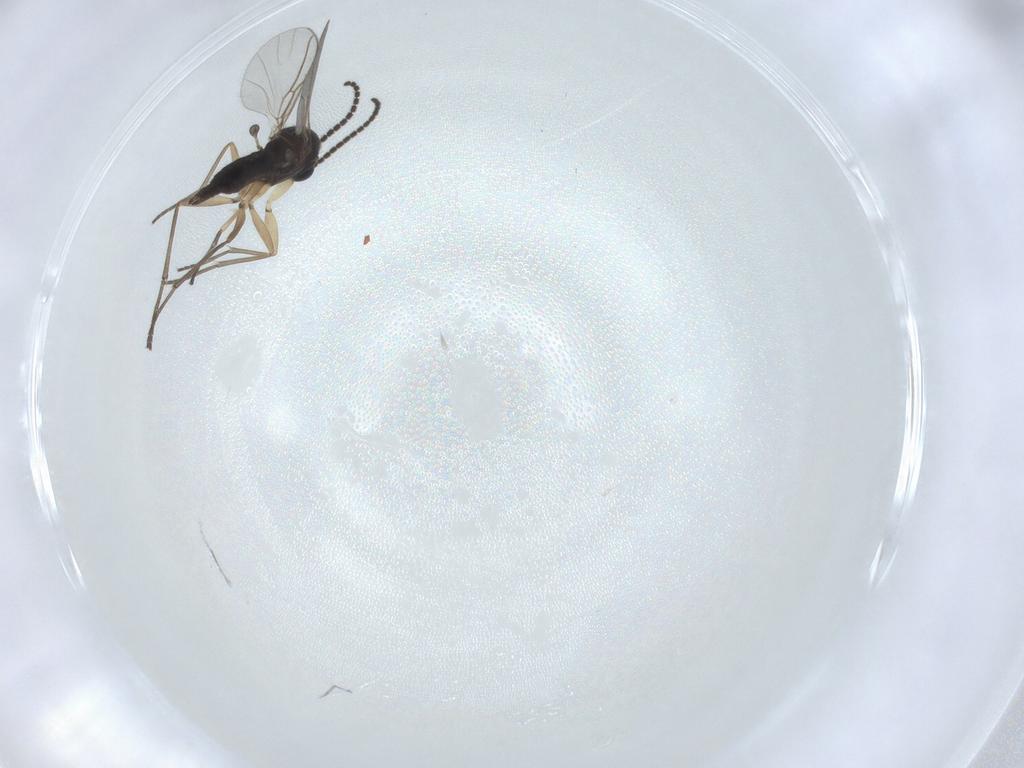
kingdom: Animalia
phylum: Arthropoda
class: Insecta
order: Diptera
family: Sciaridae
